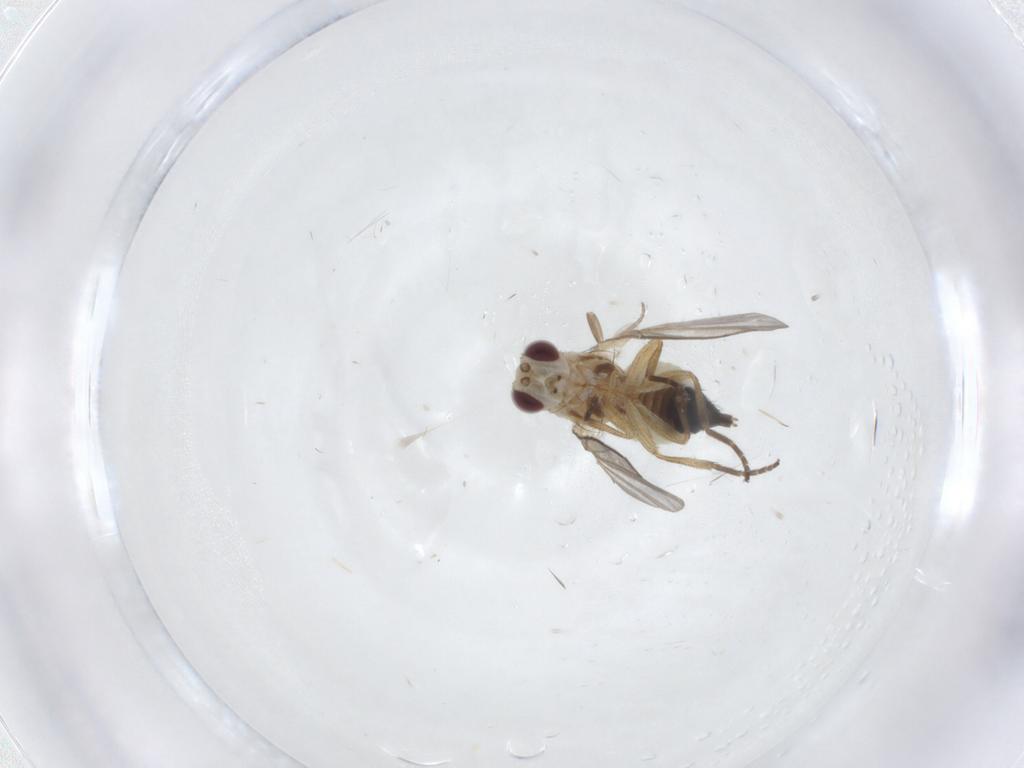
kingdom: Animalia
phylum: Arthropoda
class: Insecta
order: Diptera
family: Agromyzidae
